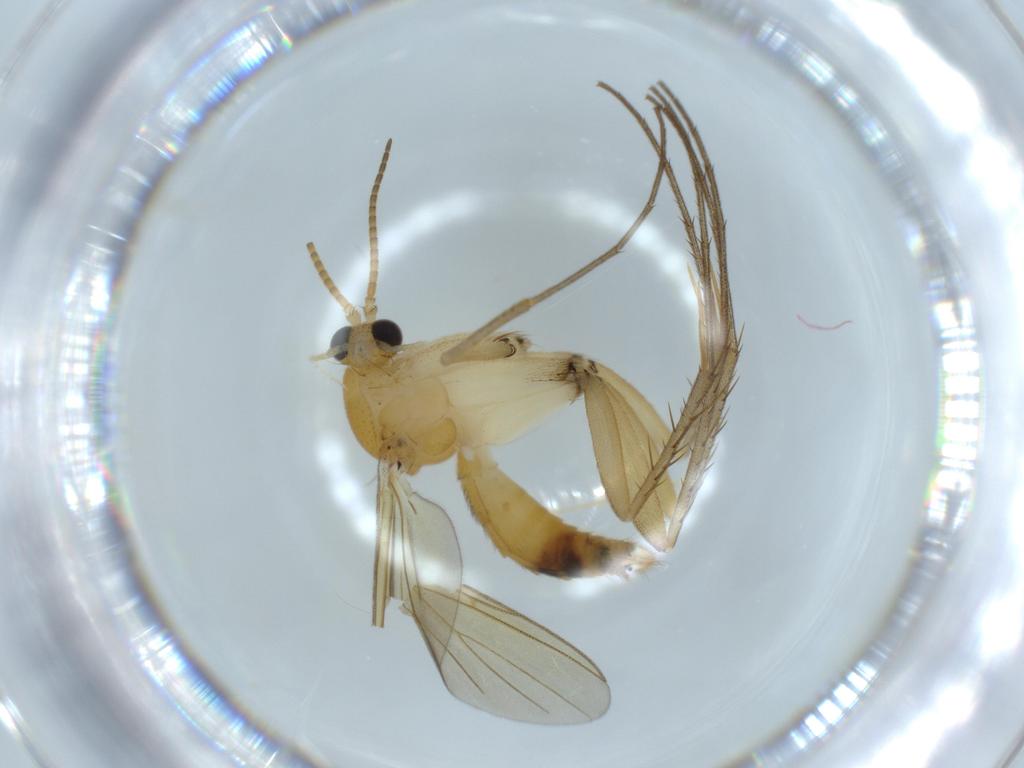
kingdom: Animalia
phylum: Arthropoda
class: Insecta
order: Diptera
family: Mycetophilidae
